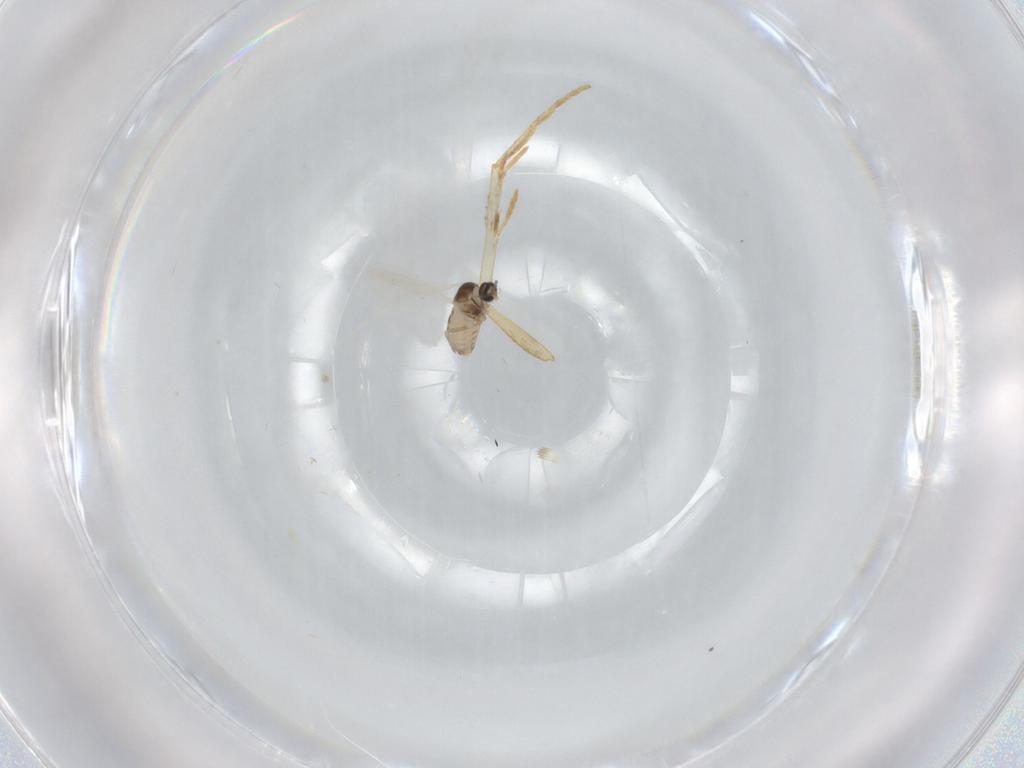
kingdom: Animalia
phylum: Arthropoda
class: Insecta
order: Diptera
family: Cecidomyiidae
